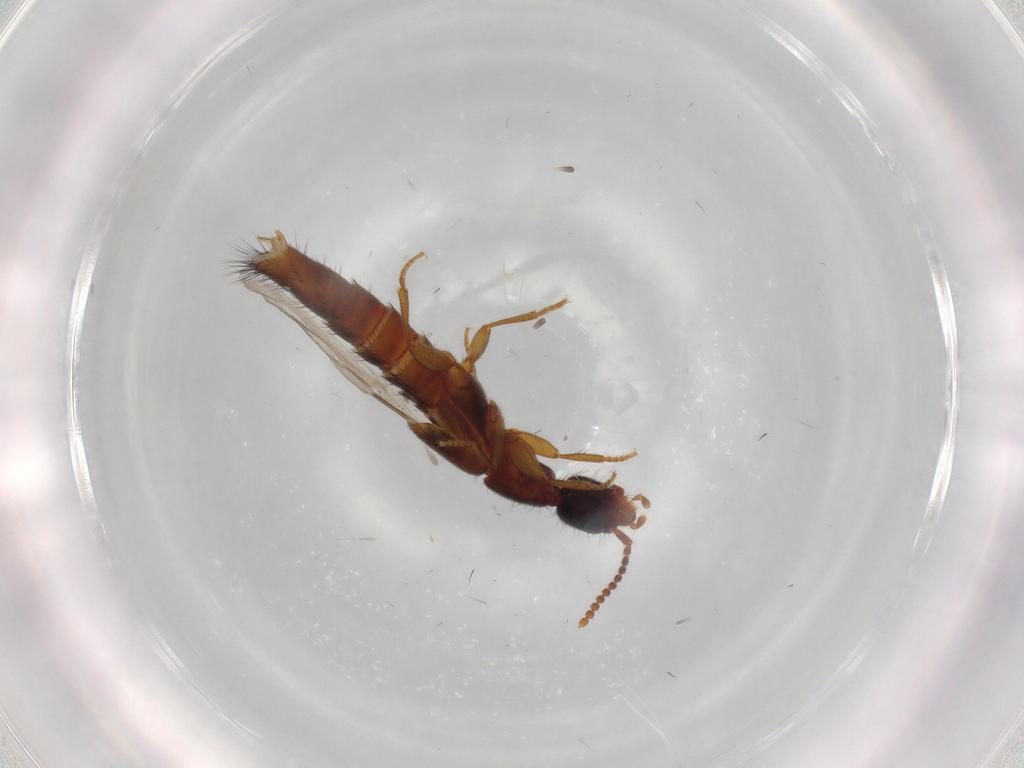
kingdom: Animalia
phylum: Arthropoda
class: Insecta
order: Coleoptera
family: Staphylinidae
